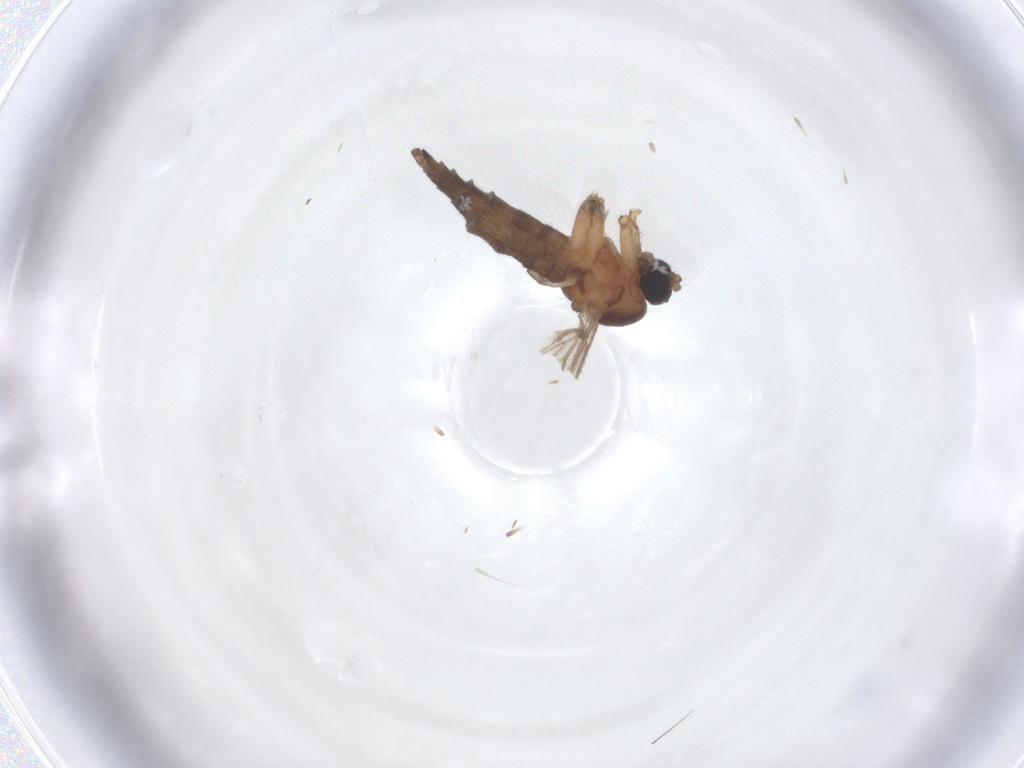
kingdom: Animalia
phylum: Arthropoda
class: Insecta
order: Diptera
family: Sciaridae
